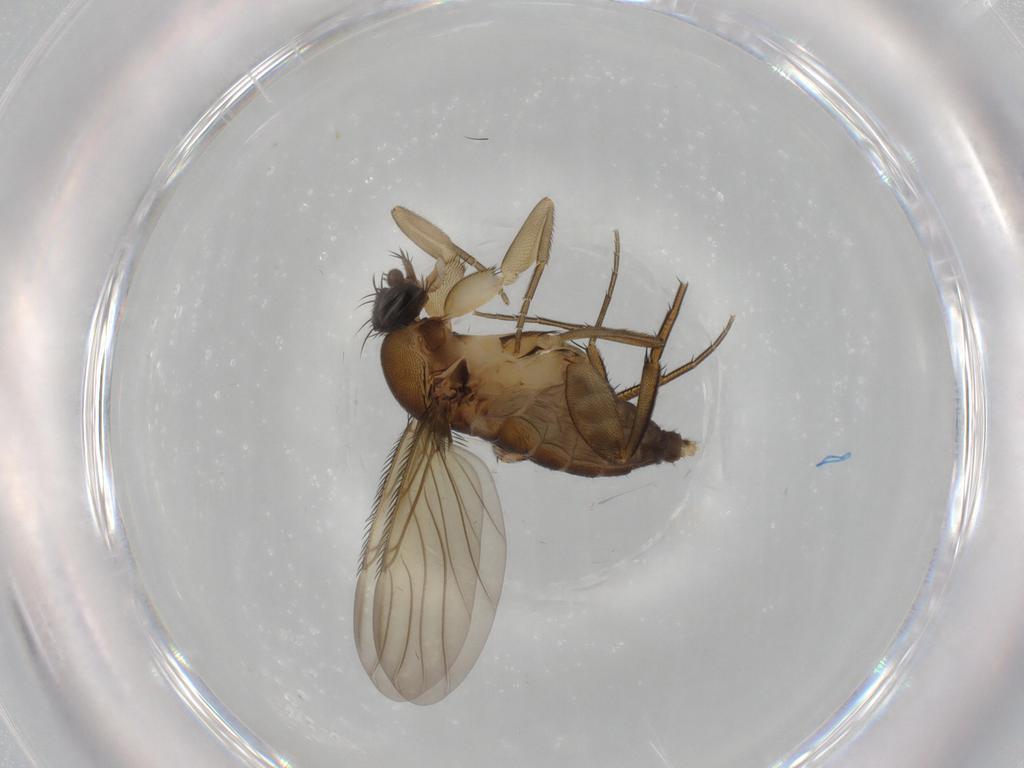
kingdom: Animalia
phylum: Arthropoda
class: Insecta
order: Diptera
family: Phoridae
